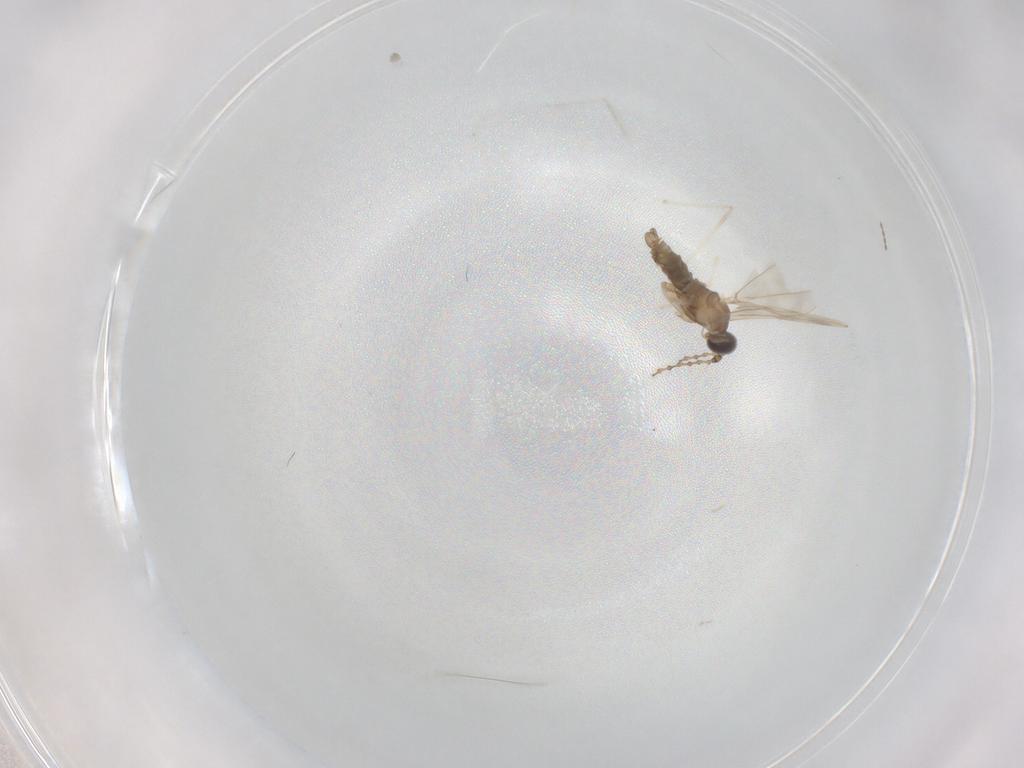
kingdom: Animalia
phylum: Arthropoda
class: Insecta
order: Diptera
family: Cecidomyiidae
